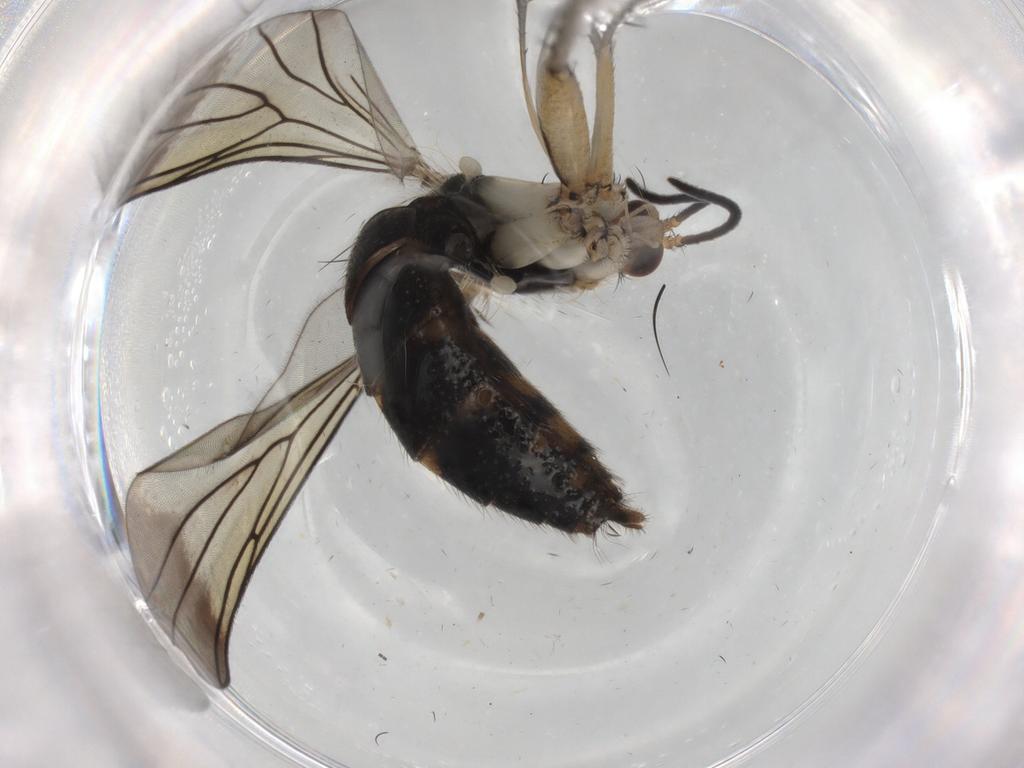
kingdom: Animalia
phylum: Arthropoda
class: Insecta
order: Diptera
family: Mycetophilidae
